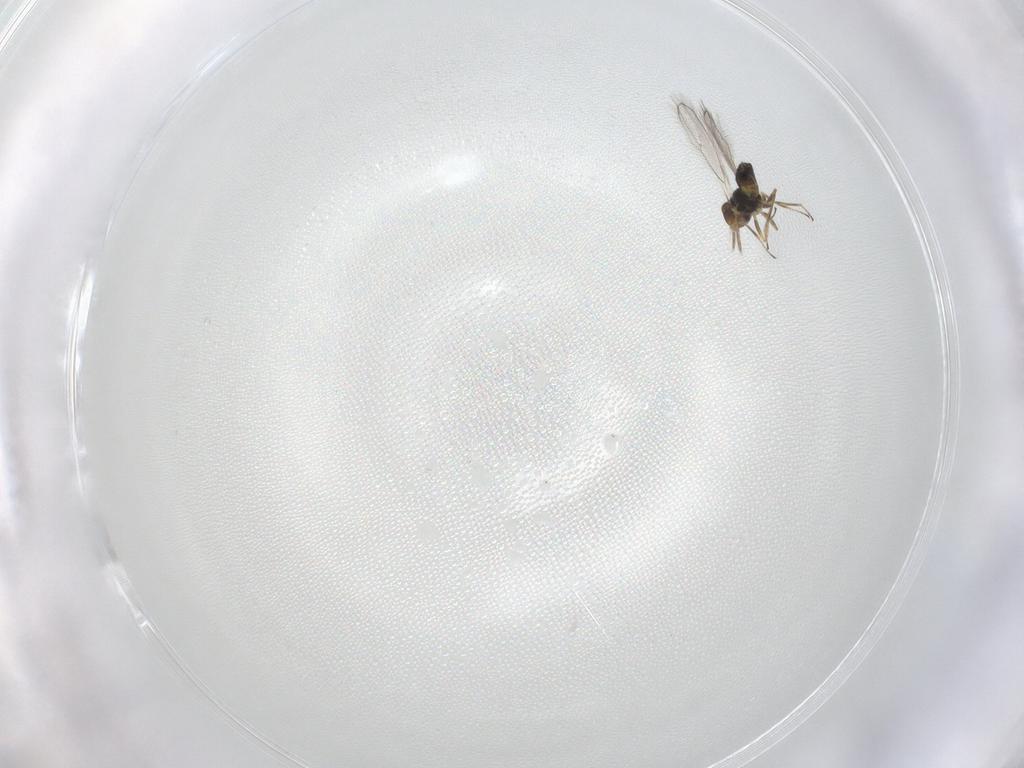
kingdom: Animalia
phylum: Arthropoda
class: Insecta
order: Hymenoptera
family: Eulophidae
